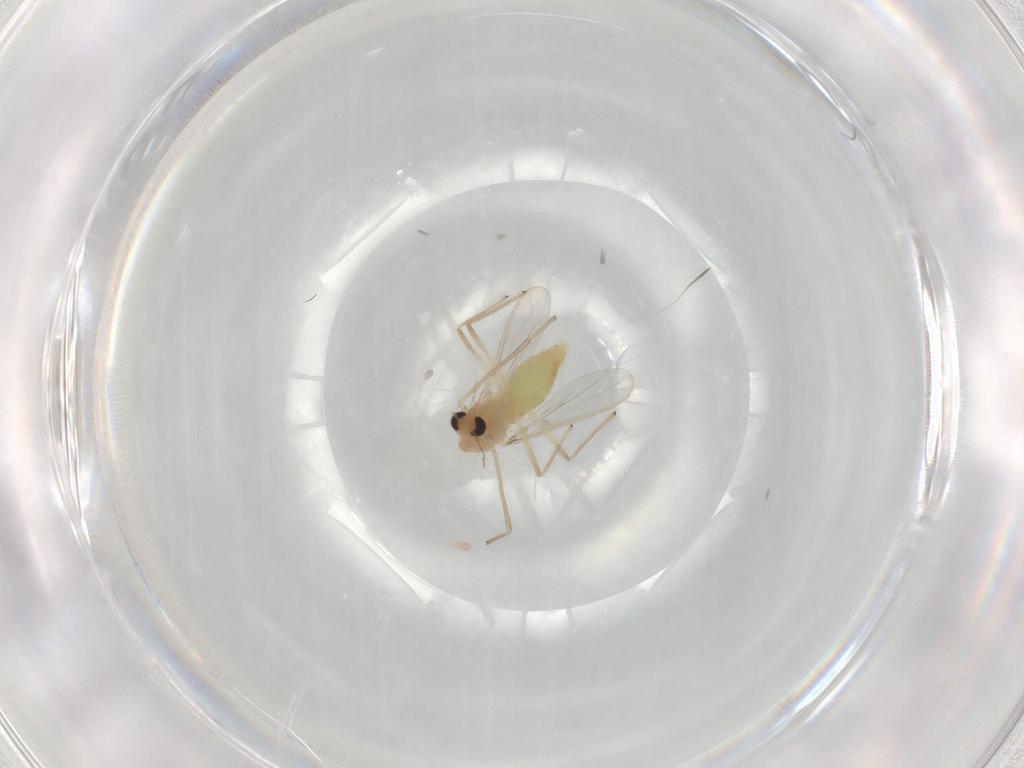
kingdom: Animalia
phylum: Arthropoda
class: Insecta
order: Diptera
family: Chironomidae
